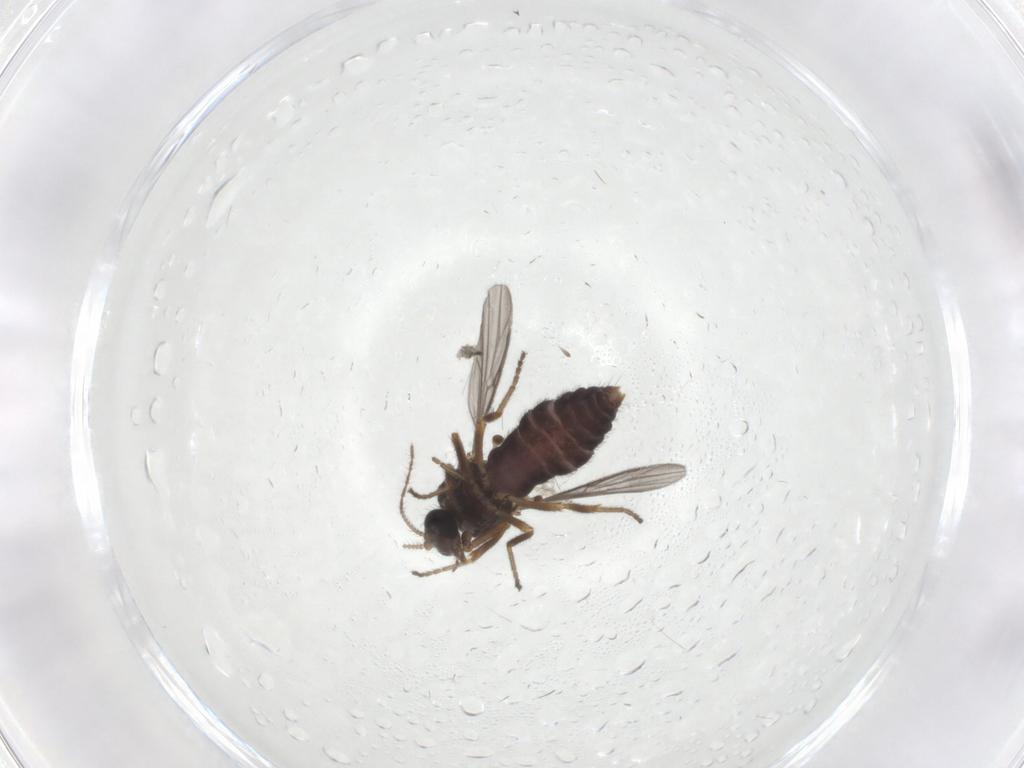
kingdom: Animalia
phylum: Arthropoda
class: Insecta
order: Diptera
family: Ceratopogonidae
